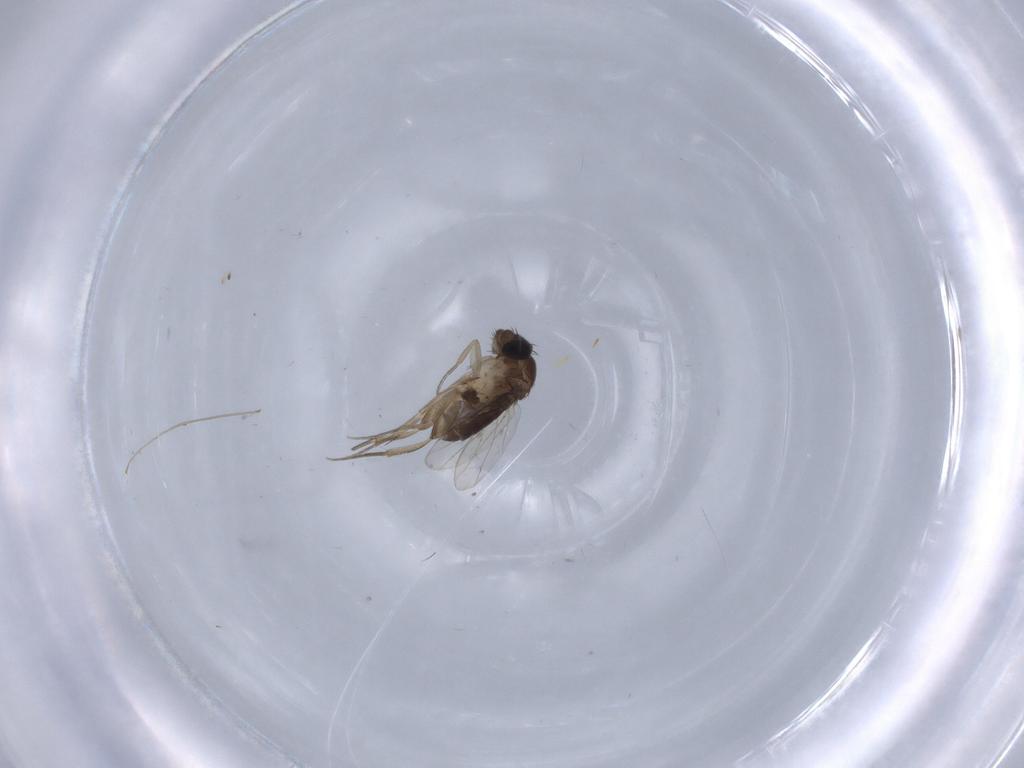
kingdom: Animalia
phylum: Arthropoda
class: Insecta
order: Diptera
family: Phoridae
